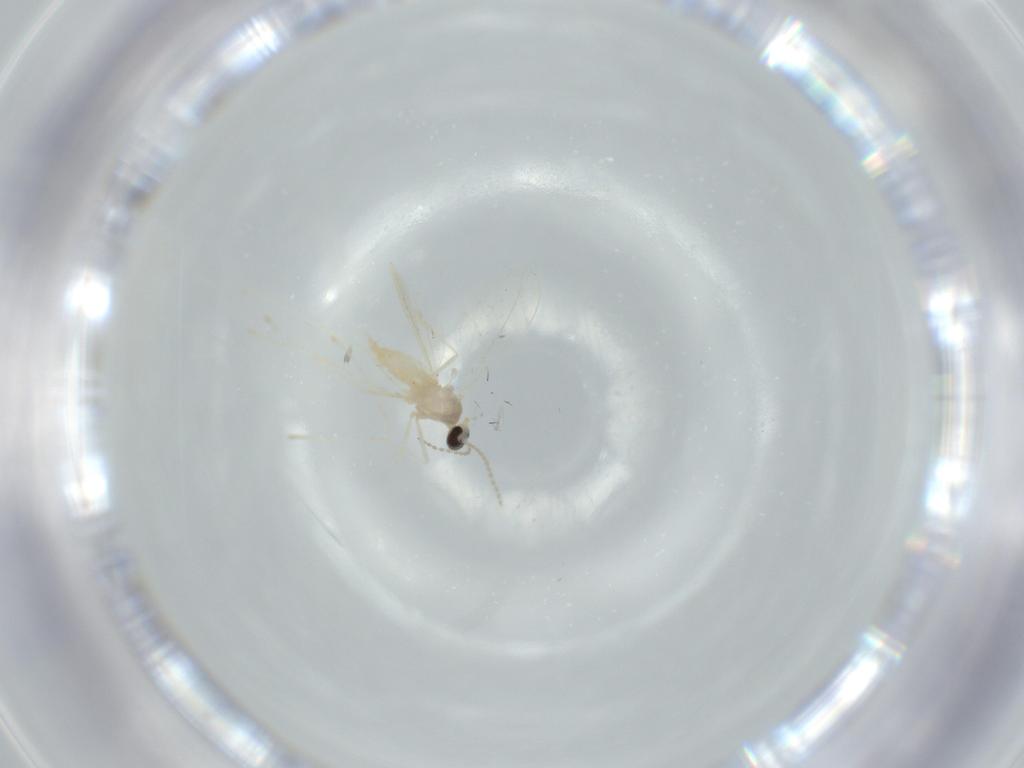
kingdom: Animalia
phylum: Arthropoda
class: Insecta
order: Diptera
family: Cecidomyiidae
